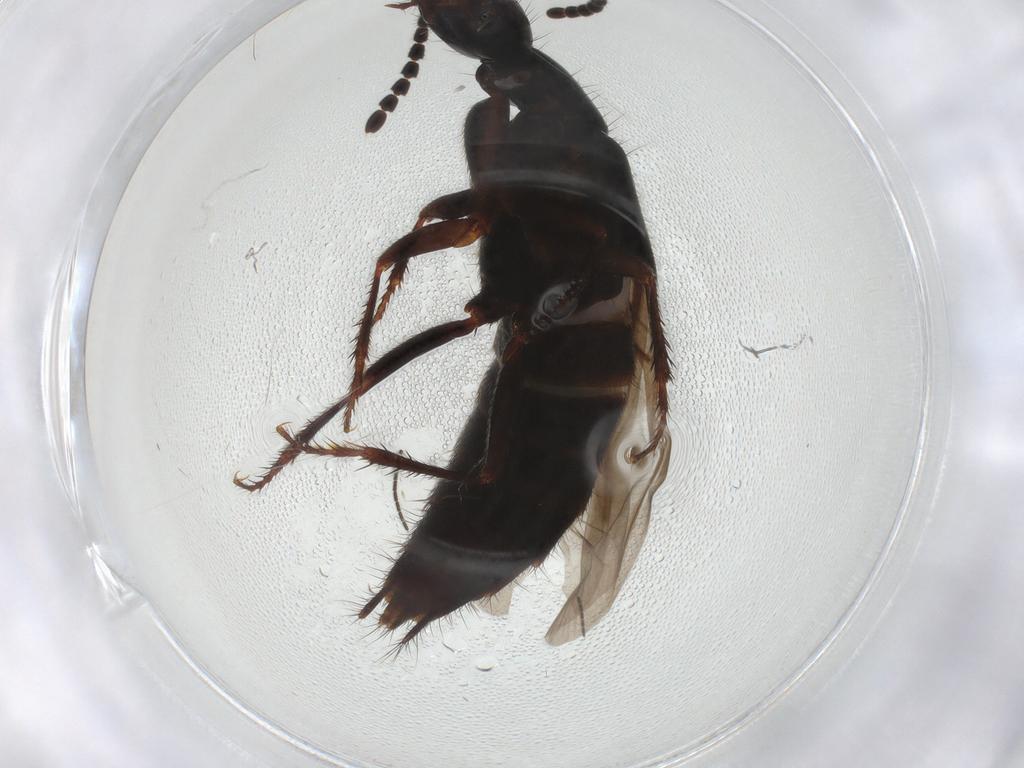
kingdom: Animalia
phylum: Arthropoda
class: Insecta
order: Coleoptera
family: Staphylinidae
